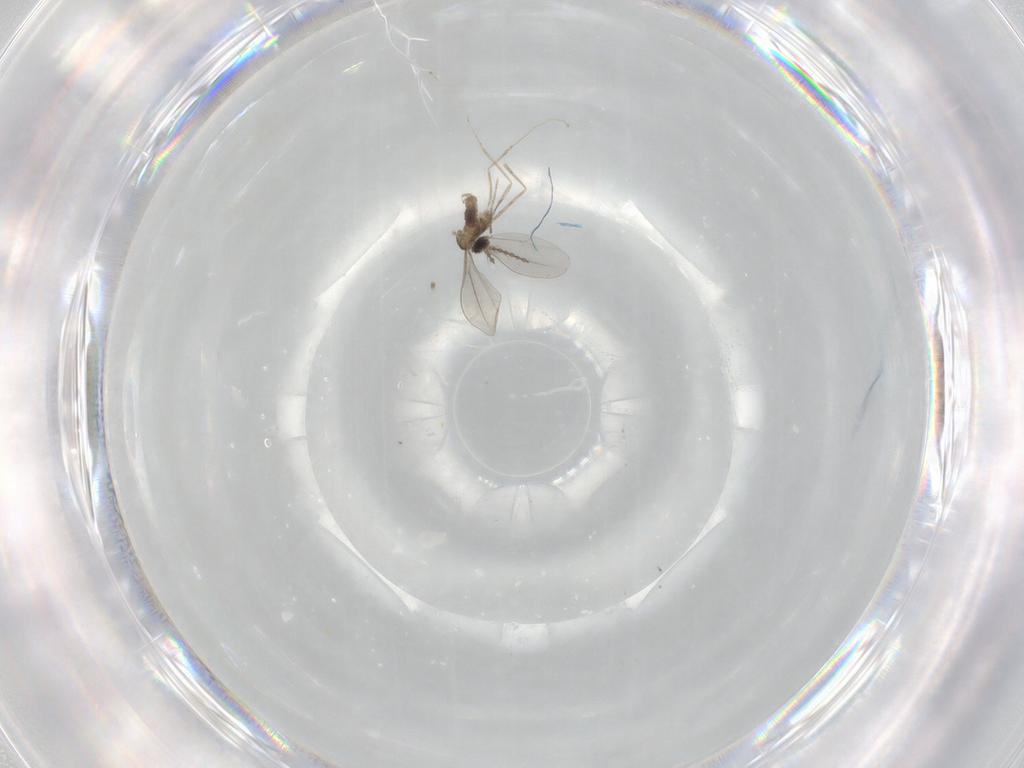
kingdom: Animalia
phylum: Arthropoda
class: Insecta
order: Diptera
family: Cecidomyiidae
